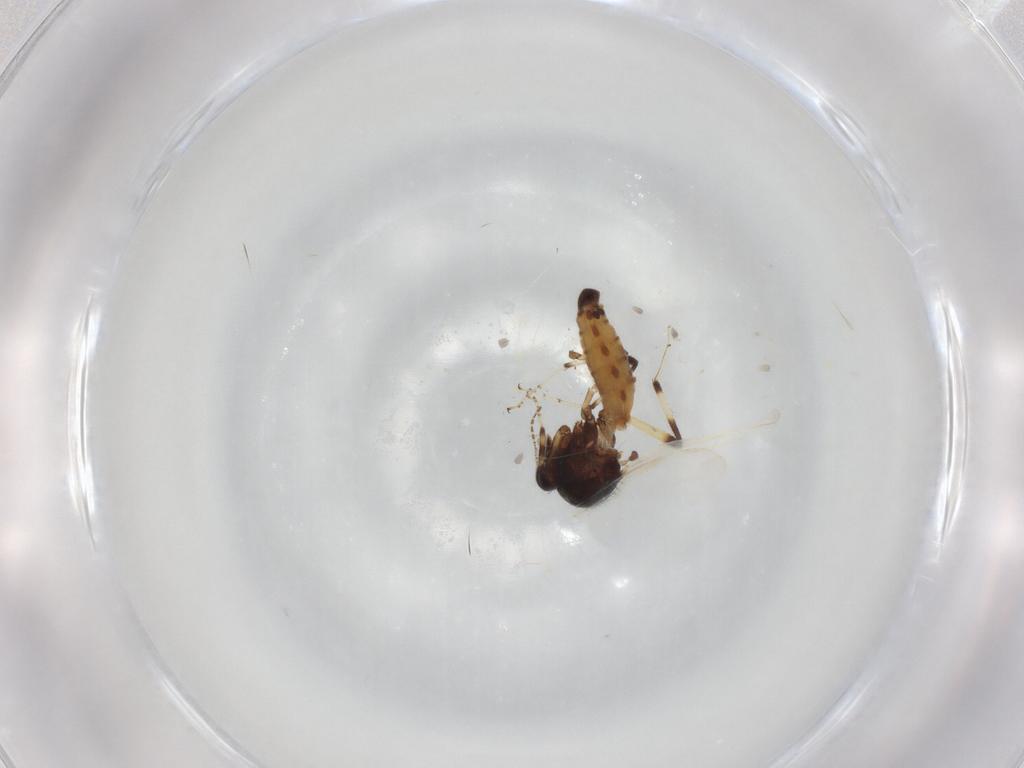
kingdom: Animalia
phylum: Arthropoda
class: Insecta
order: Diptera
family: Ceratopogonidae
